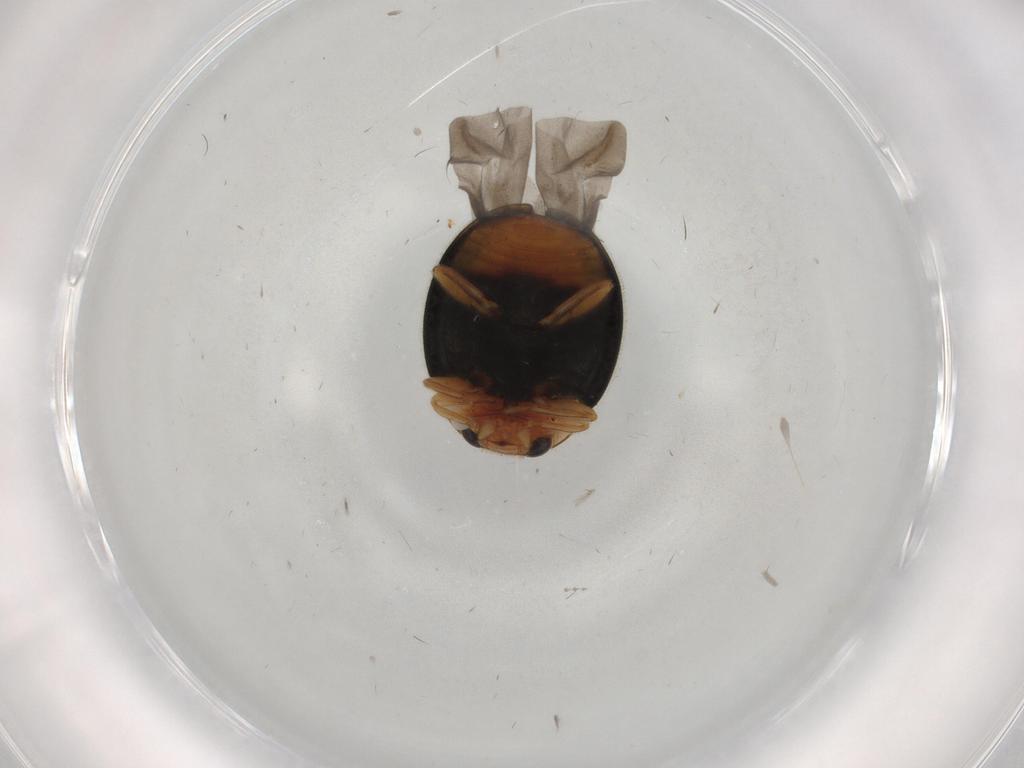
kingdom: Animalia
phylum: Arthropoda
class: Insecta
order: Coleoptera
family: Coccinellidae
